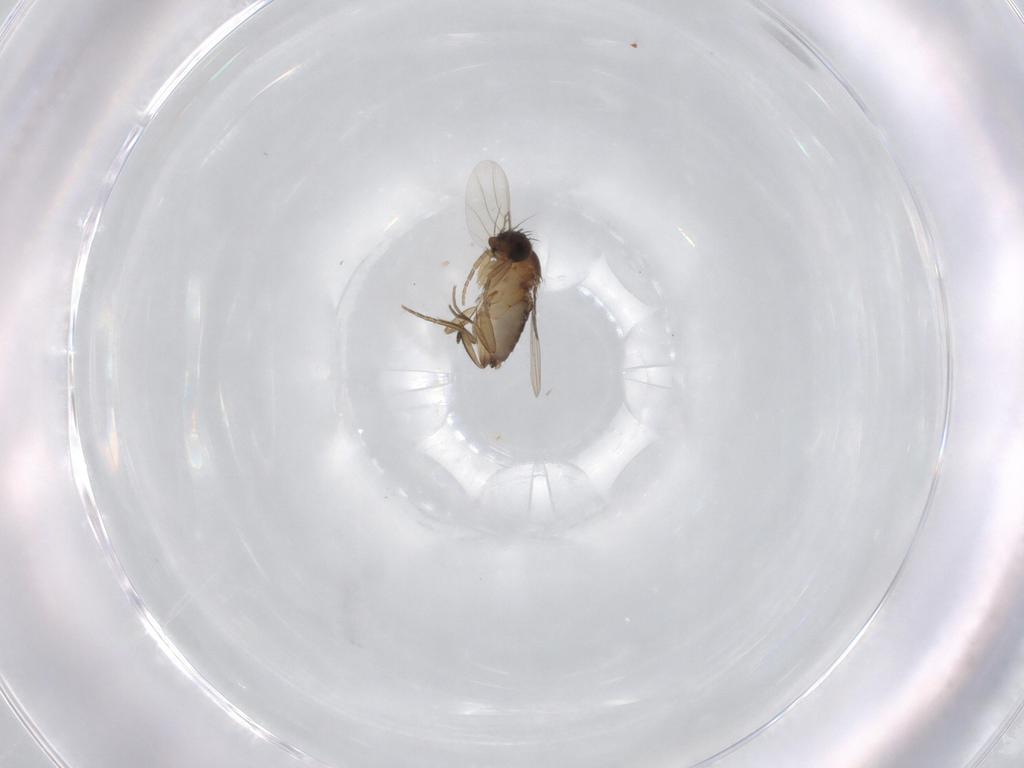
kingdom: Animalia
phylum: Arthropoda
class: Insecta
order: Diptera
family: Phoridae
